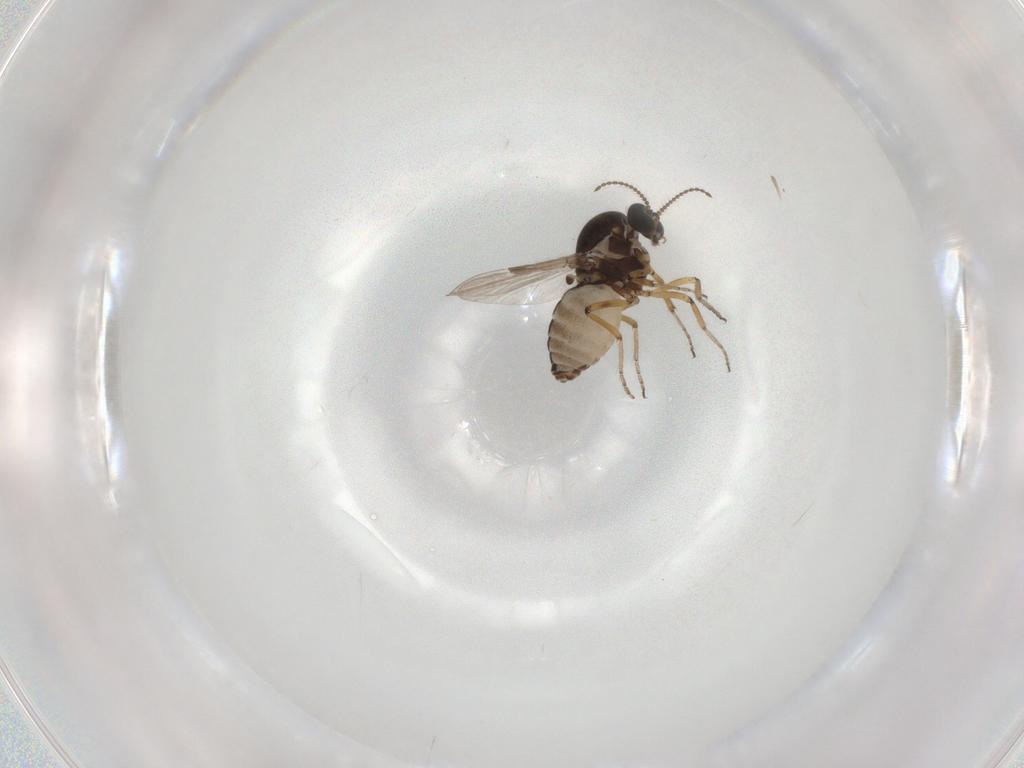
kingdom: Animalia
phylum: Arthropoda
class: Insecta
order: Diptera
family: Ceratopogonidae
